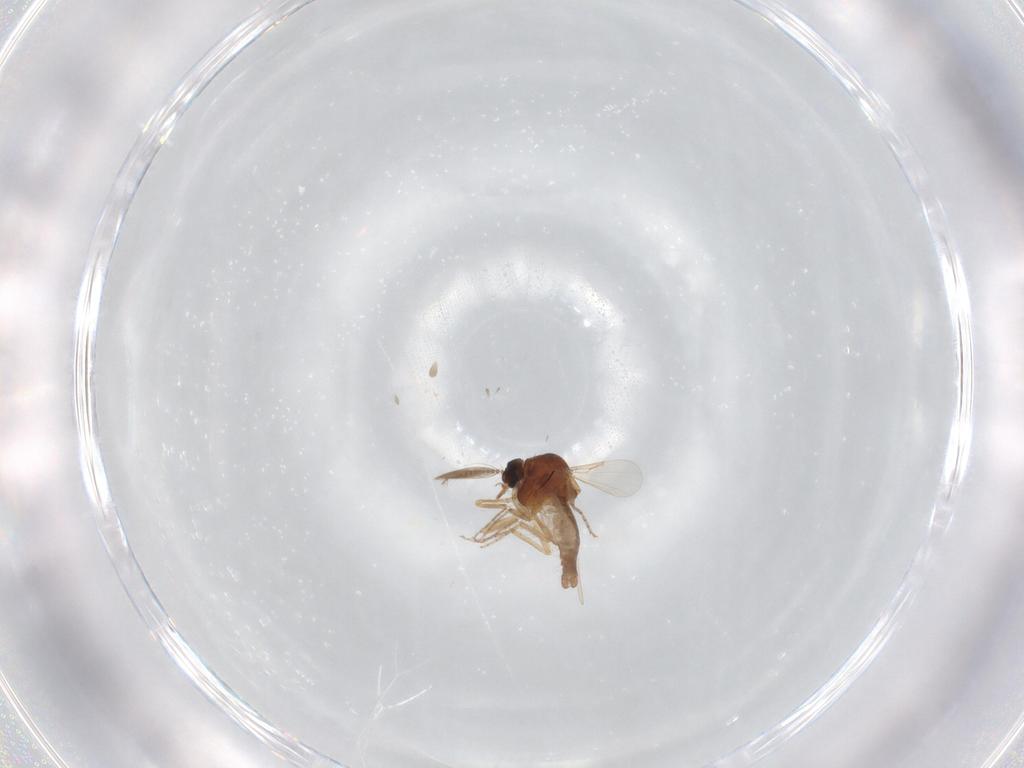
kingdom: Animalia
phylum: Arthropoda
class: Insecta
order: Diptera
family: Ceratopogonidae
